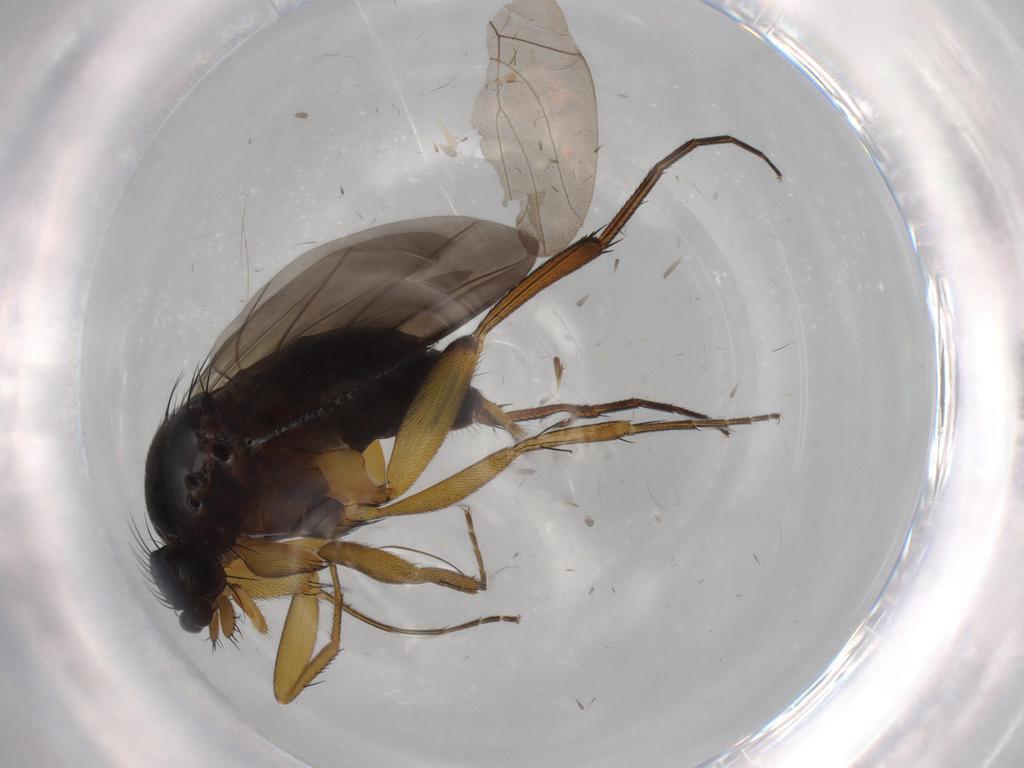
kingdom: Animalia
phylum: Arthropoda
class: Insecta
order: Diptera
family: Phoridae
